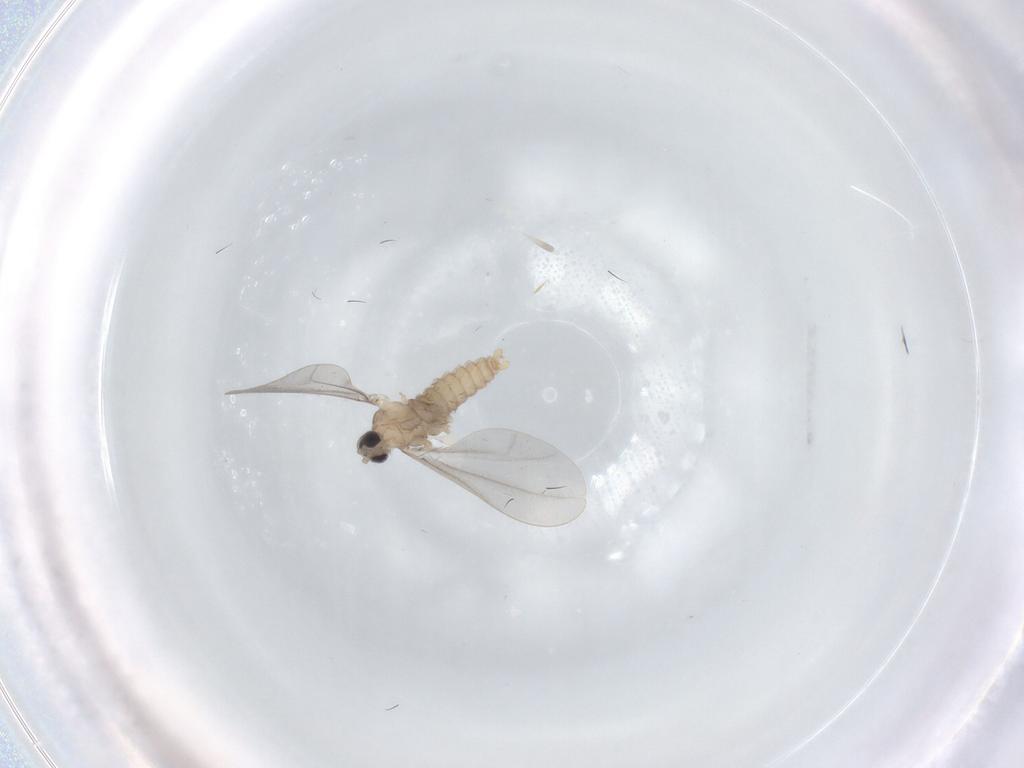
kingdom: Animalia
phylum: Arthropoda
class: Insecta
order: Diptera
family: Cecidomyiidae
